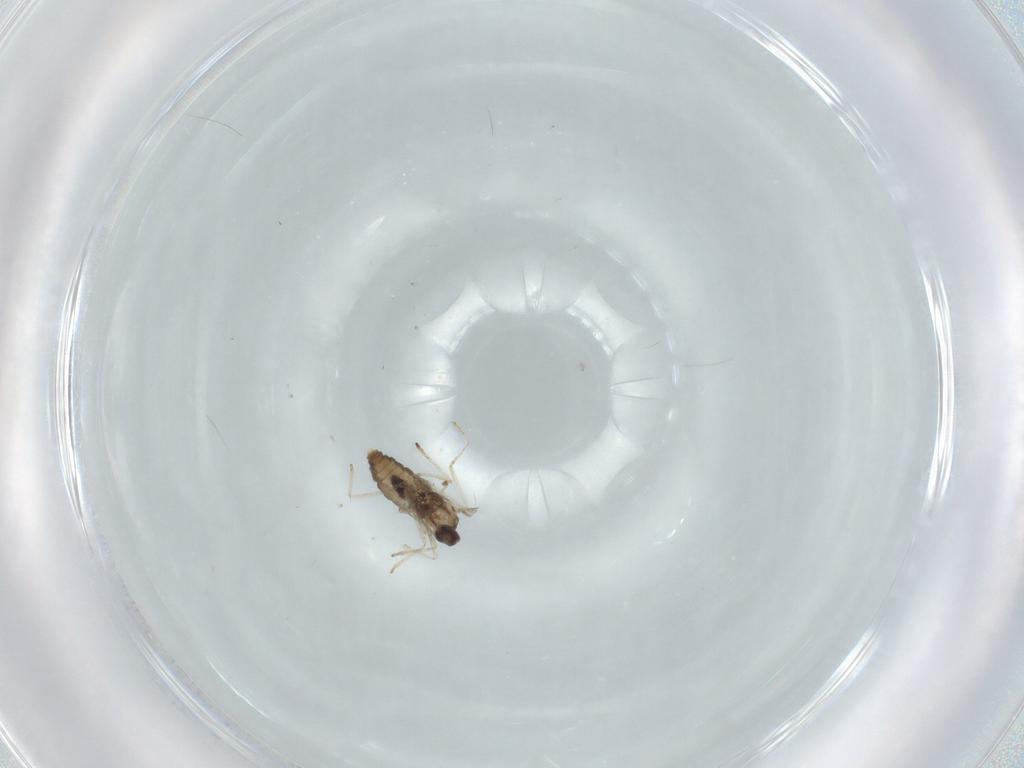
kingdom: Animalia
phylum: Arthropoda
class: Insecta
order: Diptera
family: Cecidomyiidae
